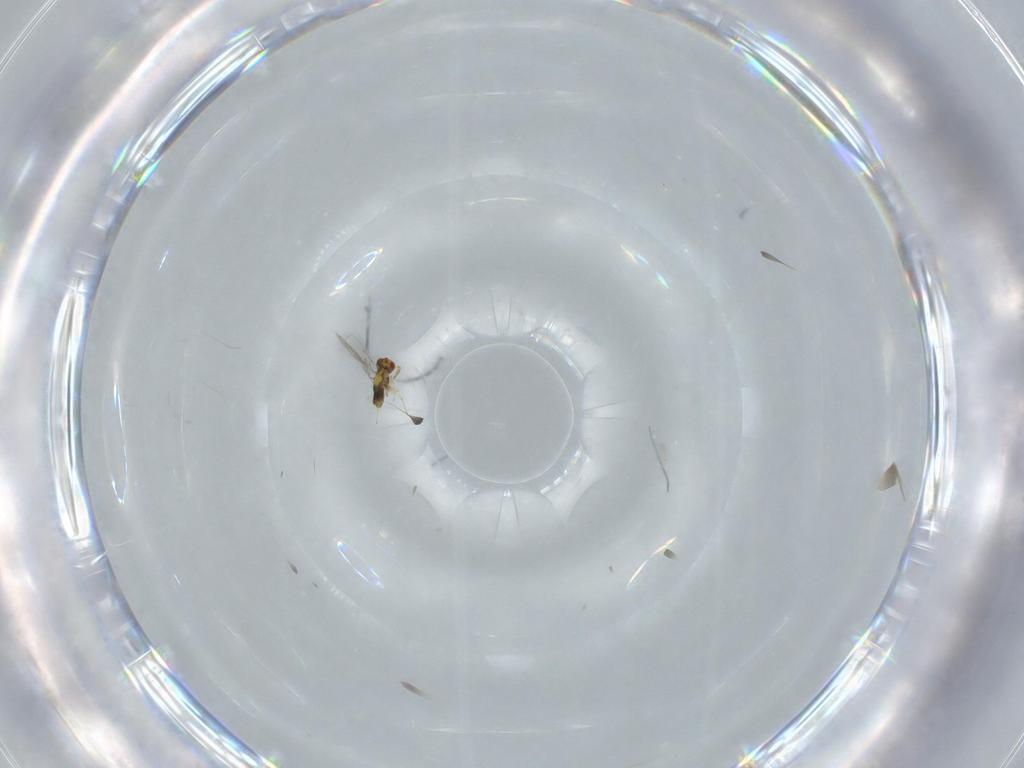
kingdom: Animalia
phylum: Arthropoda
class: Insecta
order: Hymenoptera
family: Aphelinidae
